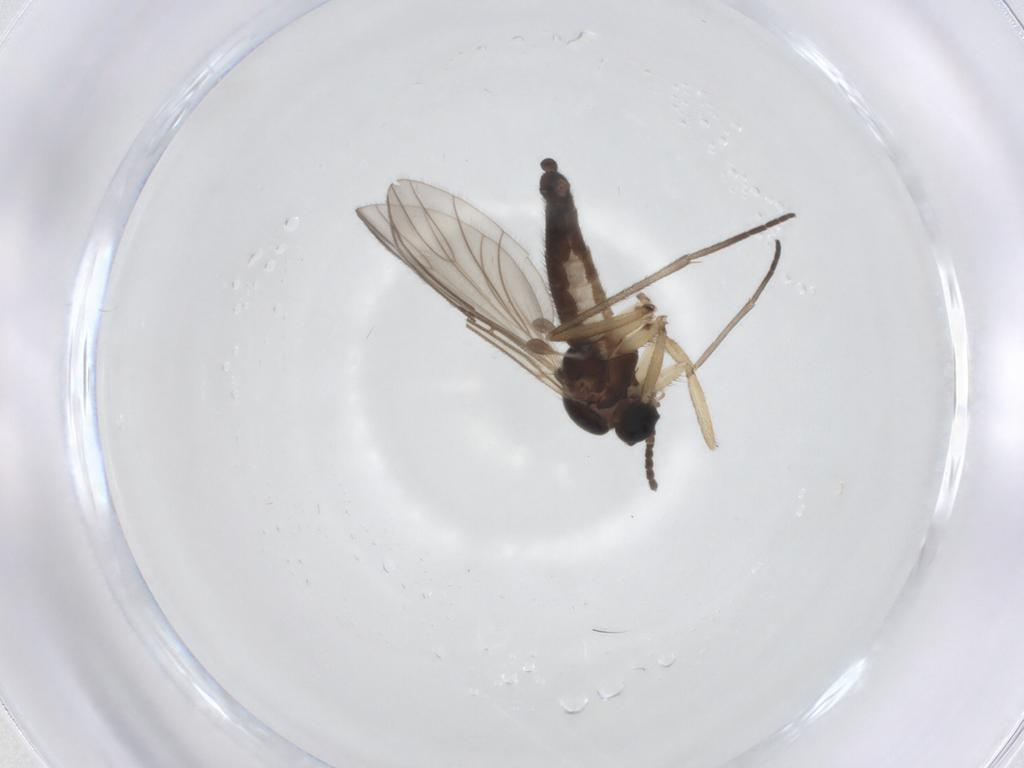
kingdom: Animalia
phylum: Arthropoda
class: Insecta
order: Diptera
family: Sciaridae
